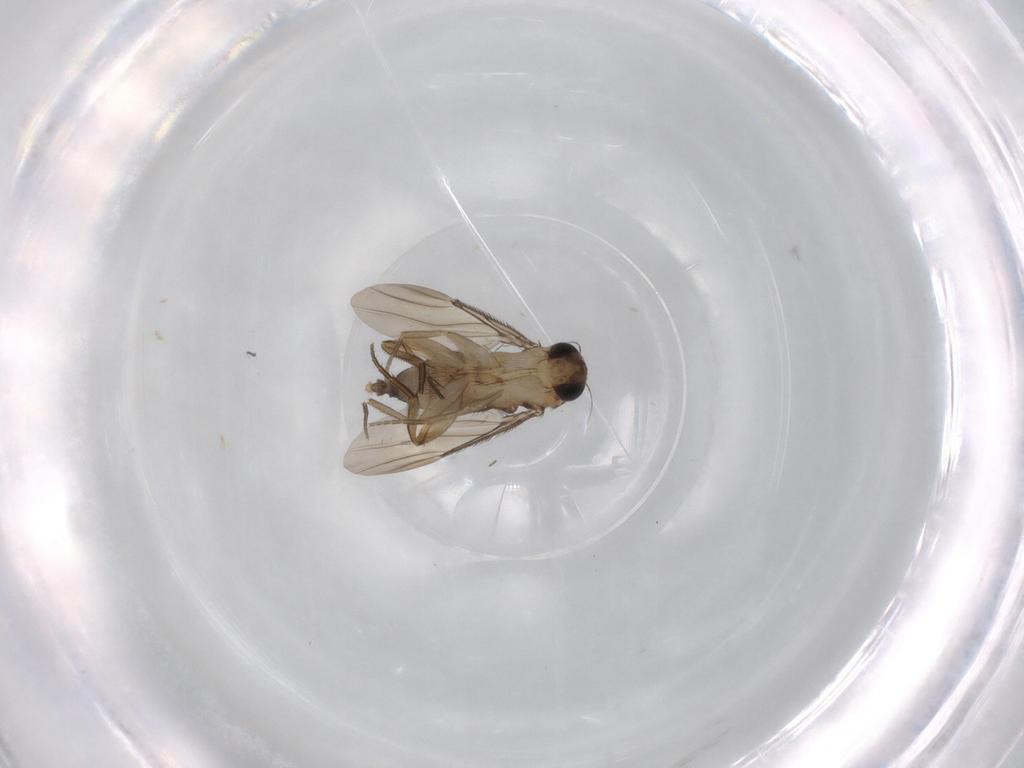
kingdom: Animalia
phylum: Arthropoda
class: Insecta
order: Diptera
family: Phoridae
